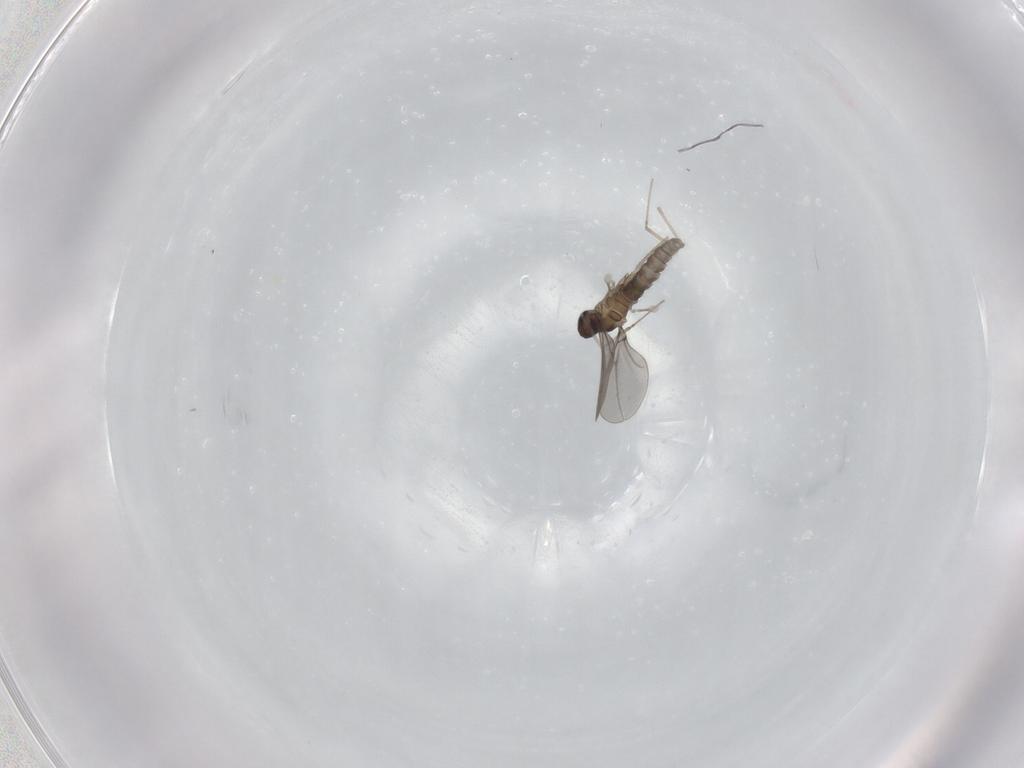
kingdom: Animalia
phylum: Arthropoda
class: Insecta
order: Diptera
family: Cecidomyiidae
